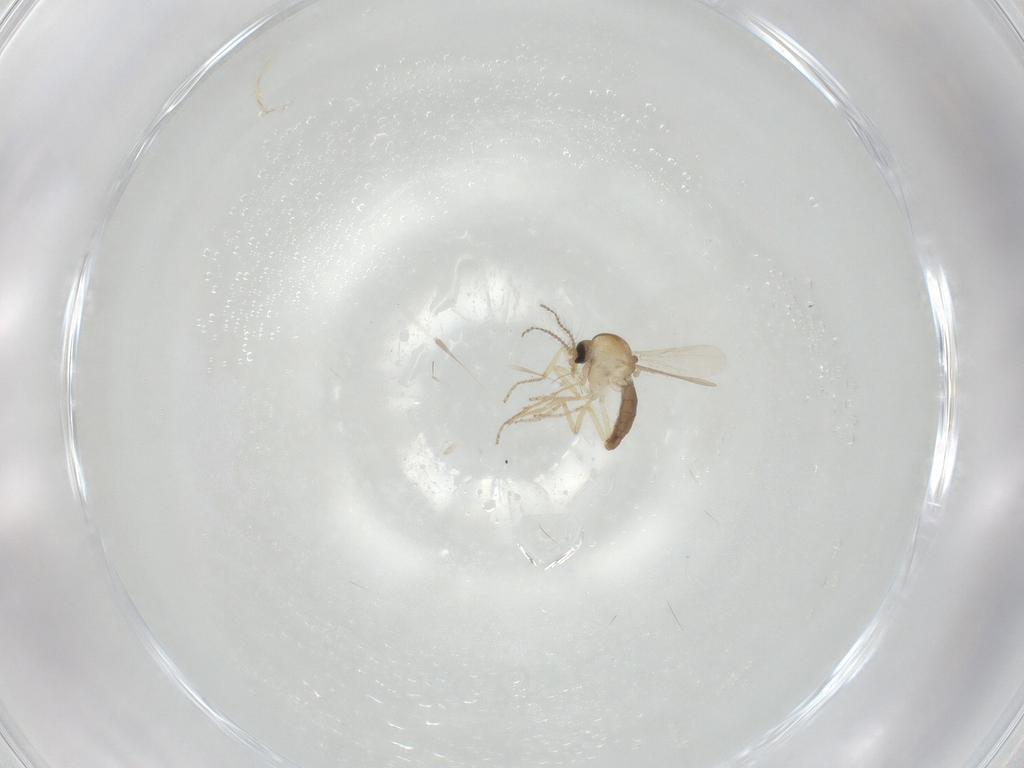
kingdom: Animalia
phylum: Arthropoda
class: Insecta
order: Diptera
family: Ceratopogonidae
